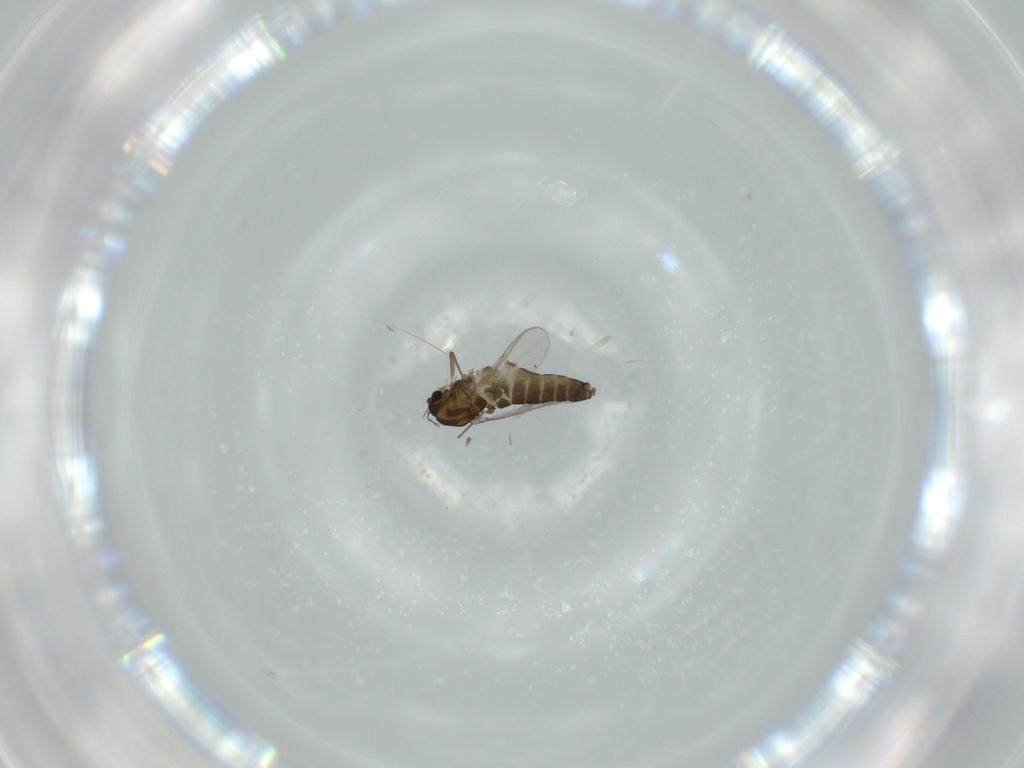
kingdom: Animalia
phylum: Arthropoda
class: Insecta
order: Diptera
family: Chironomidae
